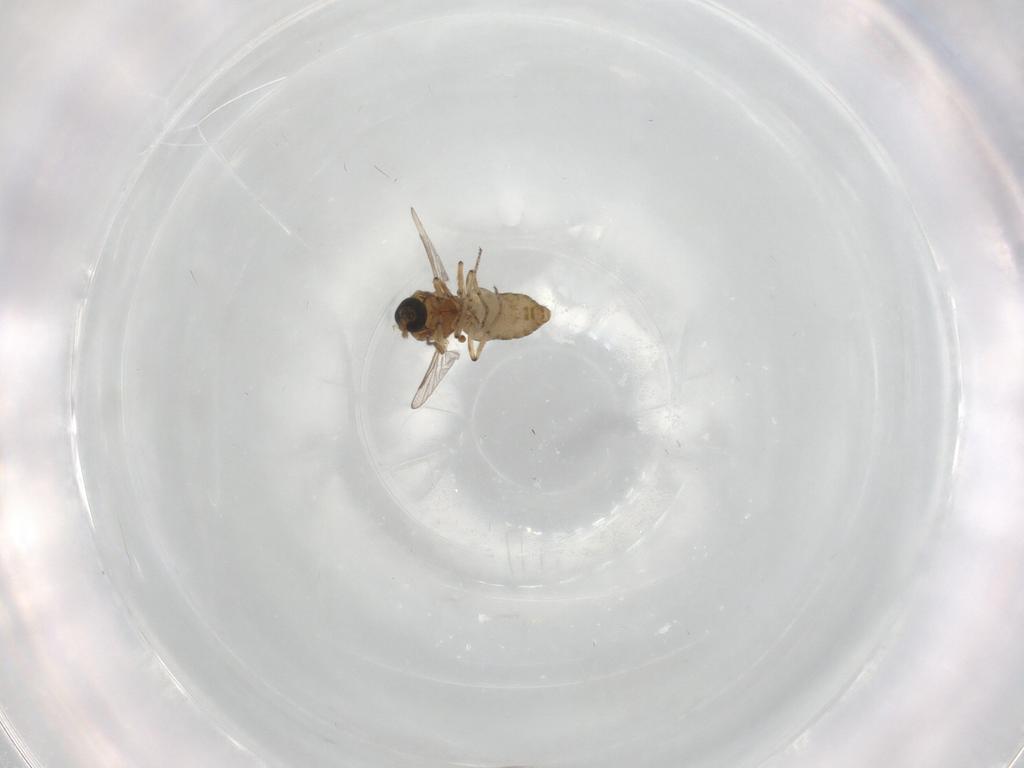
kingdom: Animalia
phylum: Arthropoda
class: Insecta
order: Diptera
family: Ceratopogonidae
